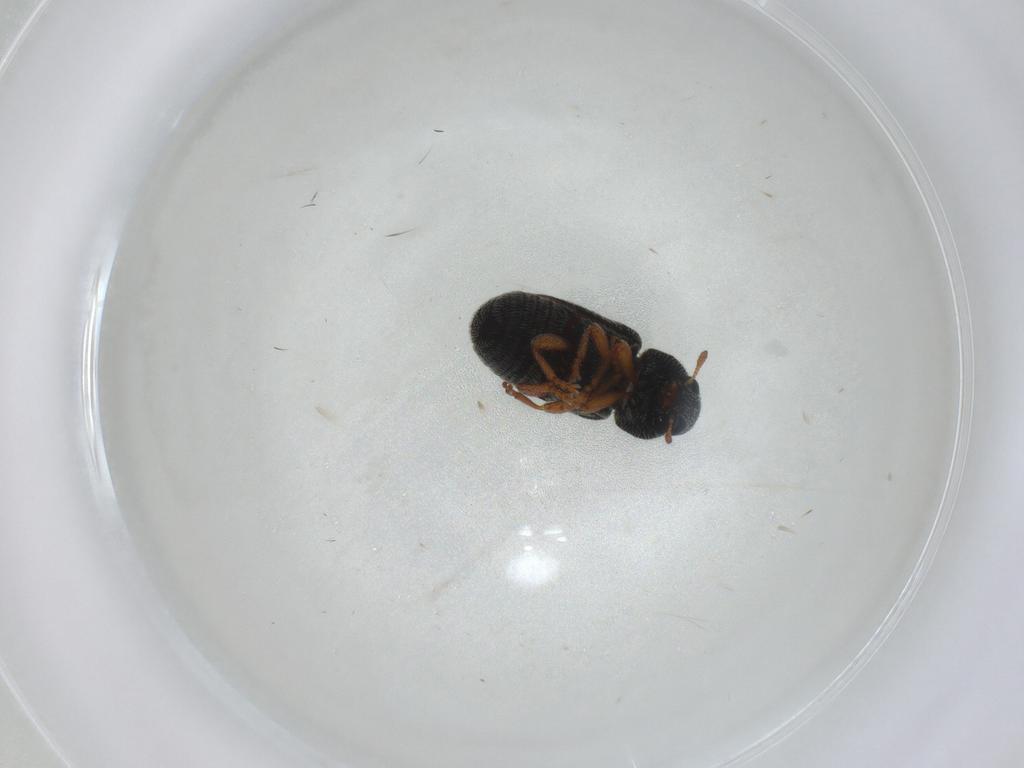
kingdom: Animalia
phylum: Arthropoda
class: Insecta
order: Coleoptera
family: Anthribidae
